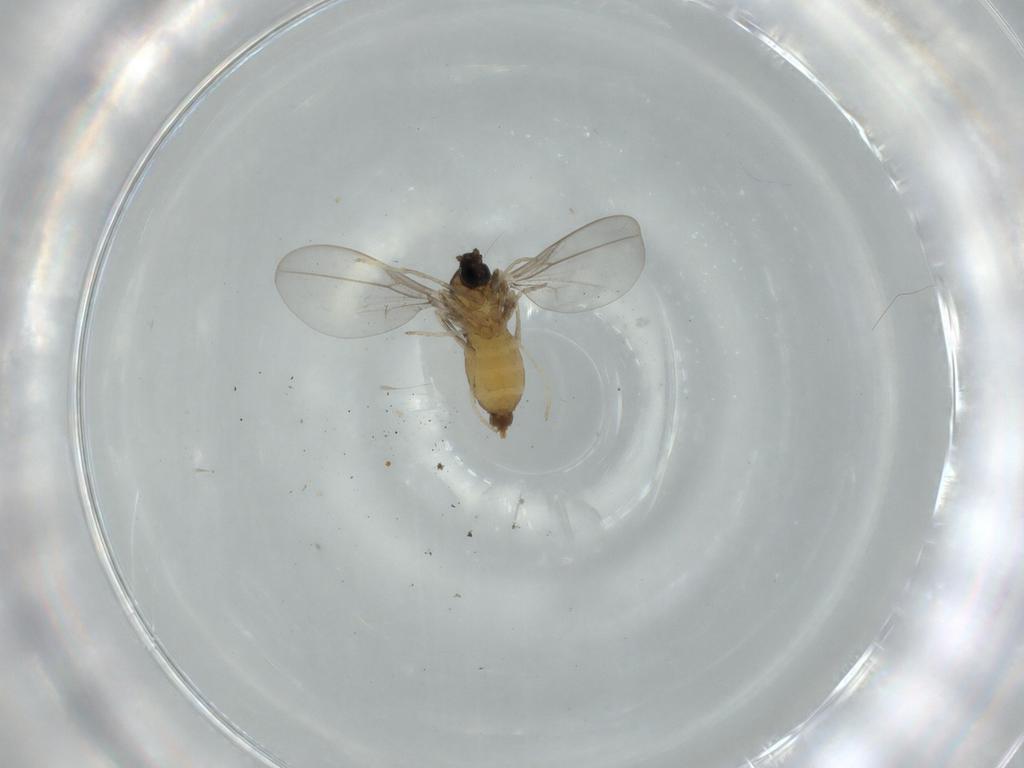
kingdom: Animalia
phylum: Arthropoda
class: Insecta
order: Diptera
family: Cecidomyiidae
